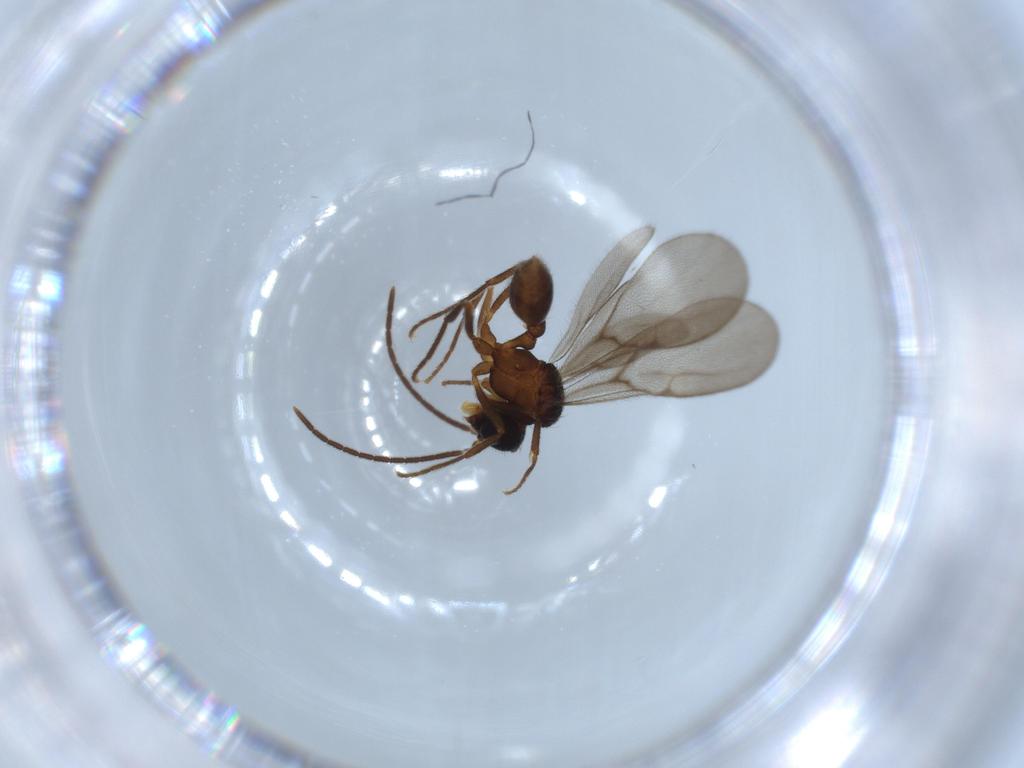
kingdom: Animalia
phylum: Arthropoda
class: Insecta
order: Hymenoptera
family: Formicidae
